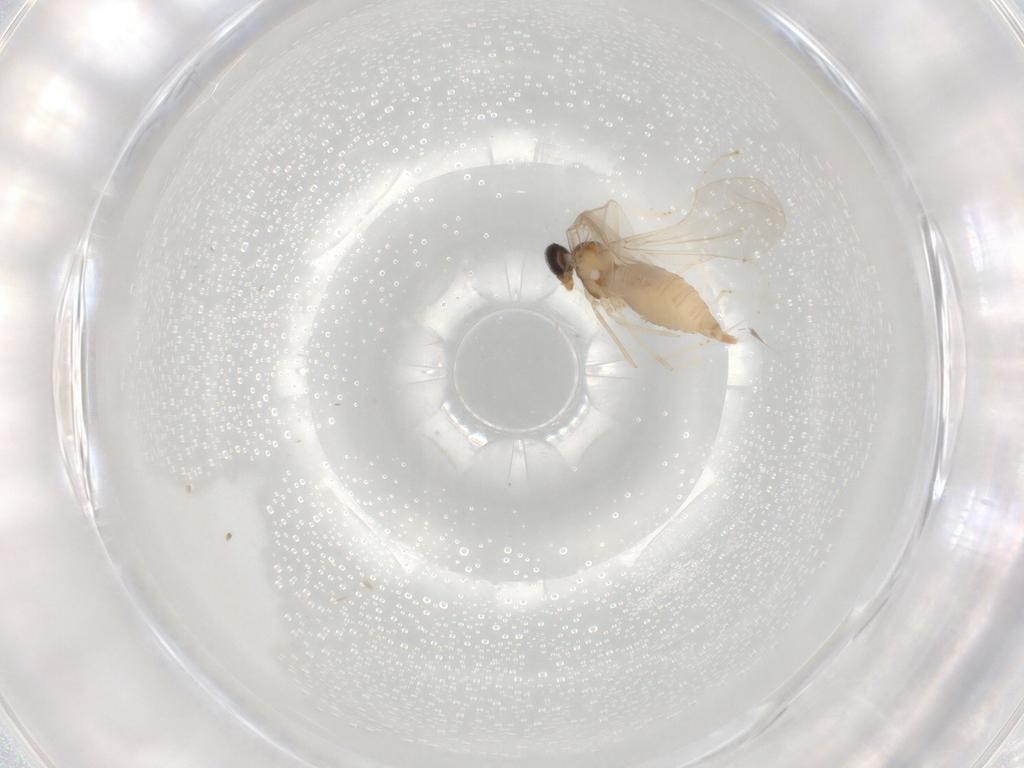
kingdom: Animalia
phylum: Arthropoda
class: Insecta
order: Diptera
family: Cecidomyiidae
